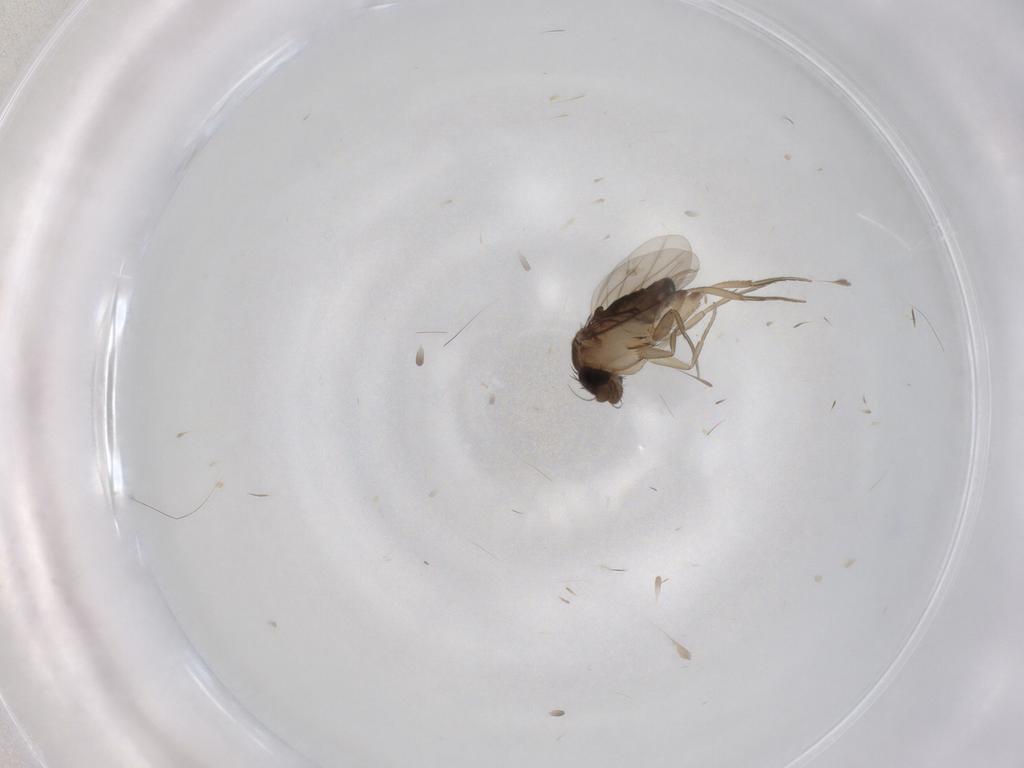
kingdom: Animalia
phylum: Arthropoda
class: Insecta
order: Diptera
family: Phoridae
